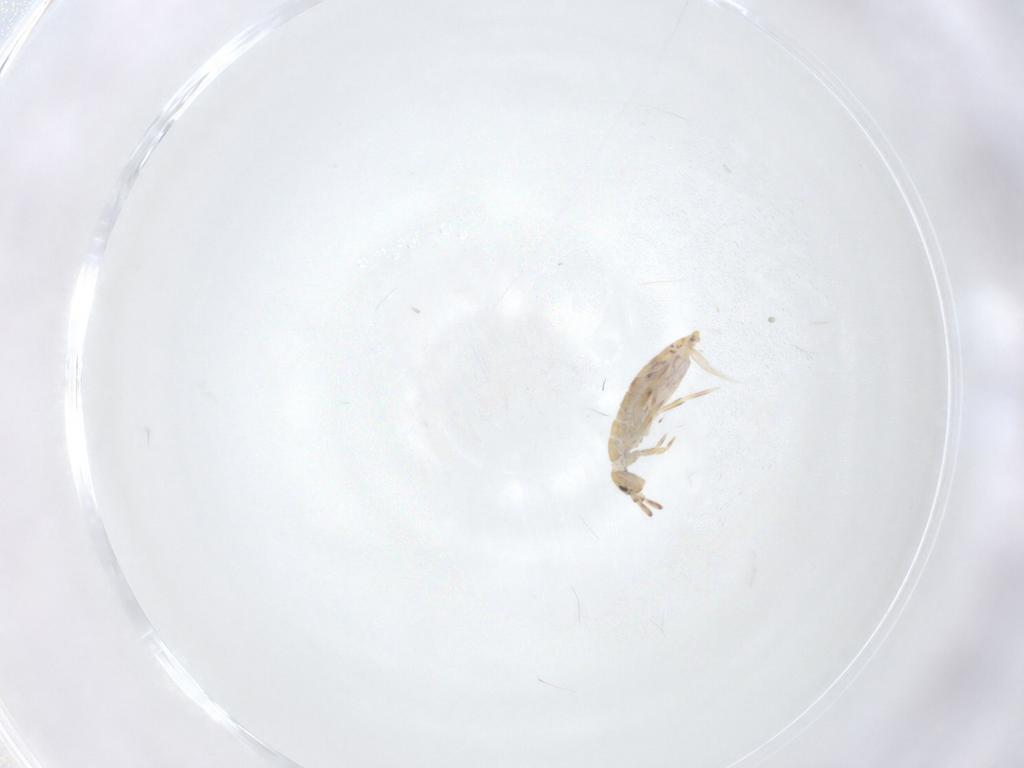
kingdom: Animalia
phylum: Arthropoda
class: Collembola
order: Entomobryomorpha
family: Entomobryidae
